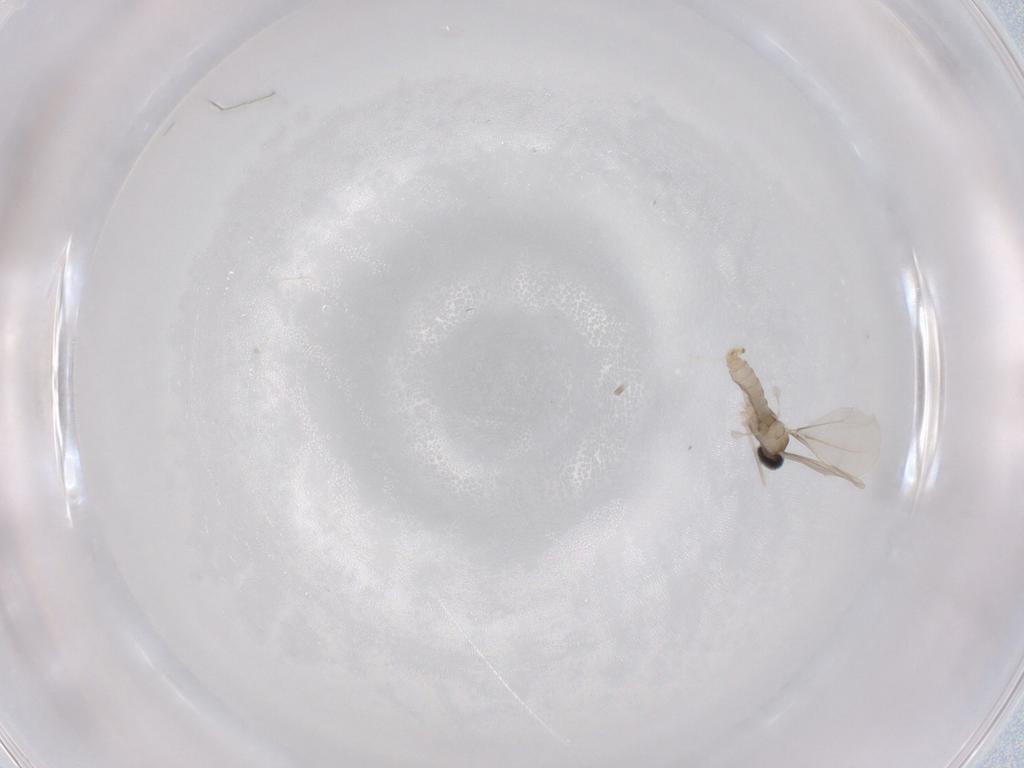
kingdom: Animalia
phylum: Arthropoda
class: Insecta
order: Diptera
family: Cecidomyiidae
